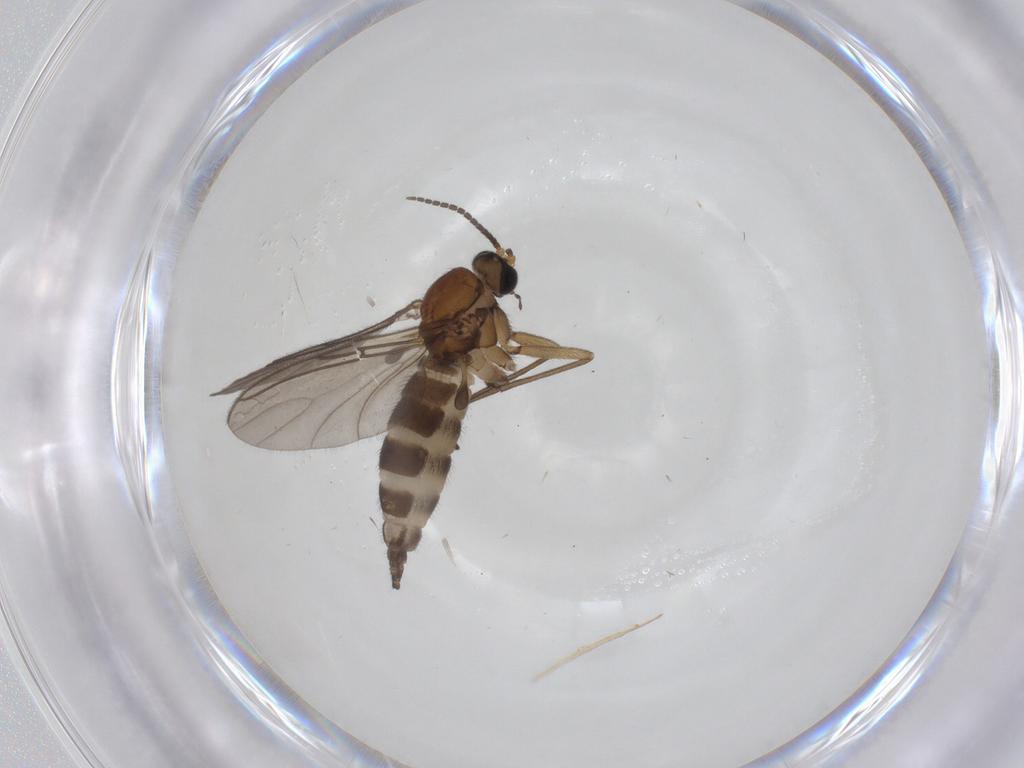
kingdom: Animalia
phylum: Arthropoda
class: Insecta
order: Diptera
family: Sciaridae
